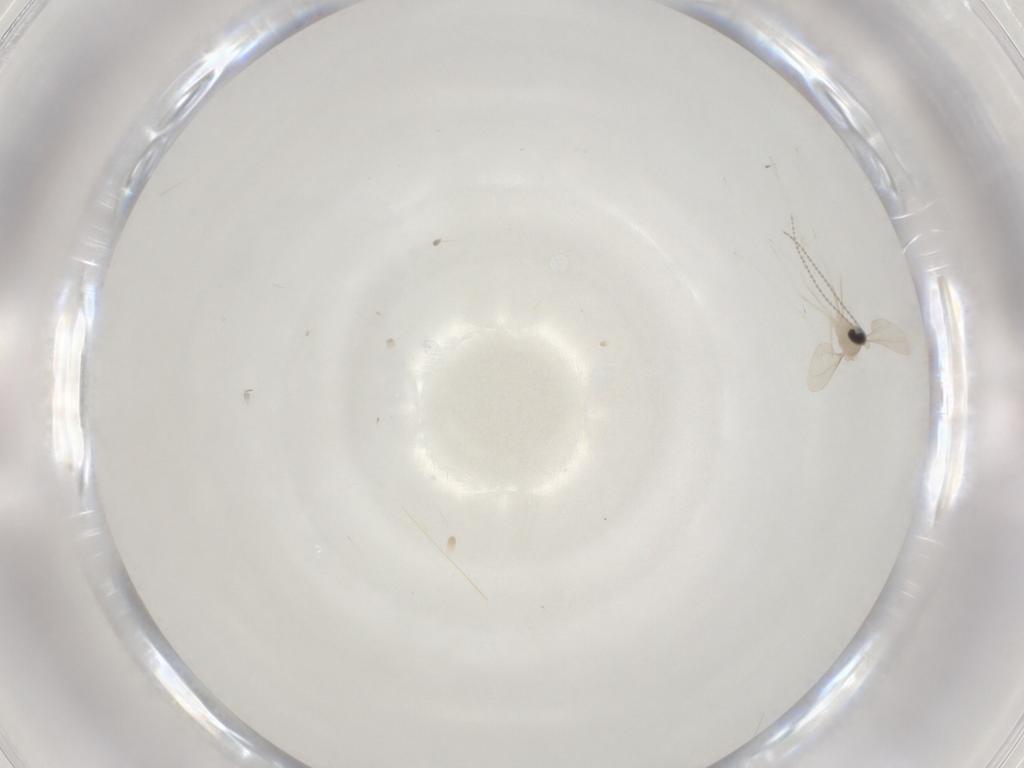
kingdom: Animalia
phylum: Arthropoda
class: Insecta
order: Diptera
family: Cecidomyiidae
